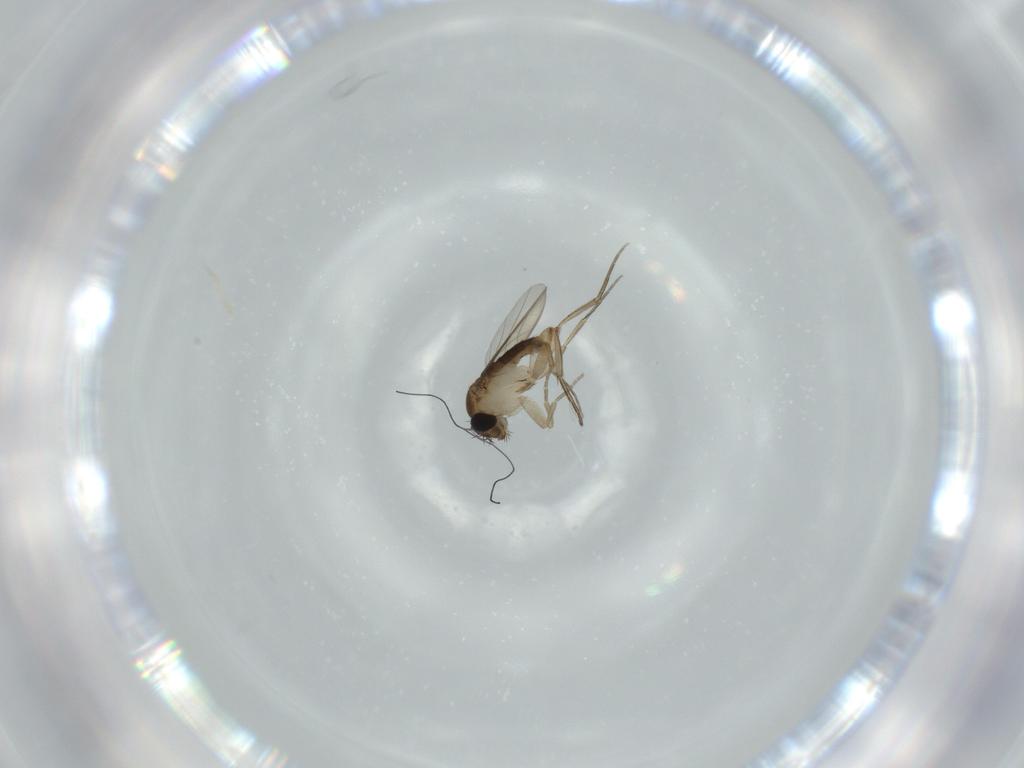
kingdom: Animalia
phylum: Arthropoda
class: Insecta
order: Diptera
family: Phoridae
